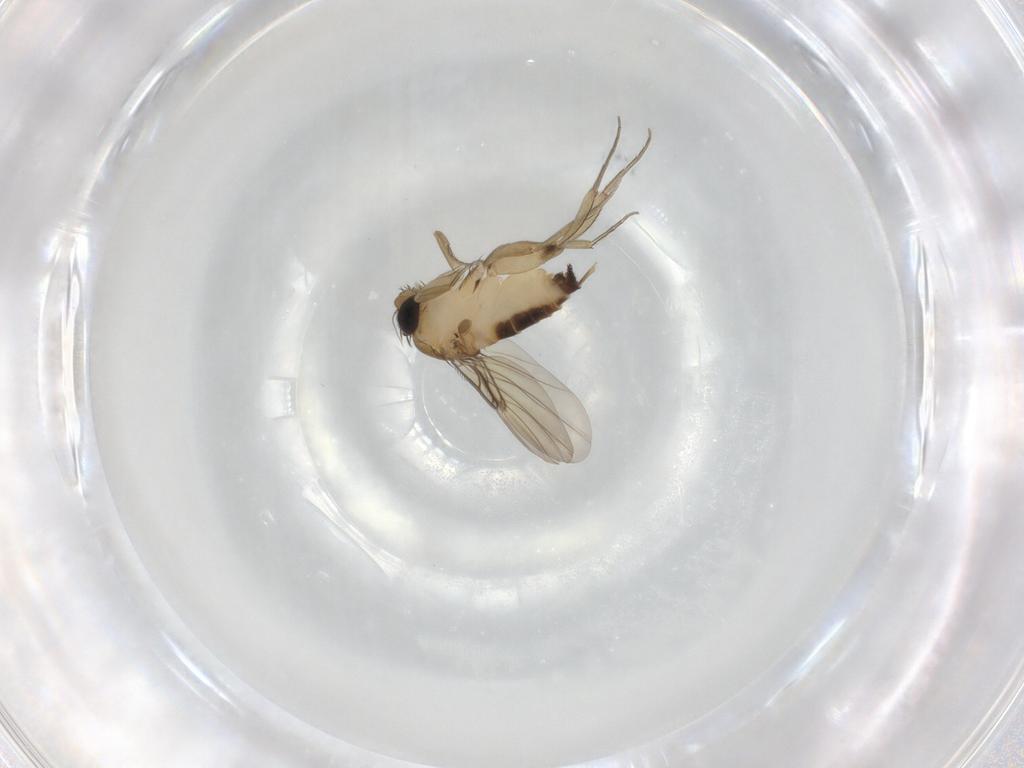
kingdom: Animalia
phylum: Arthropoda
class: Insecta
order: Diptera
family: Phoridae
